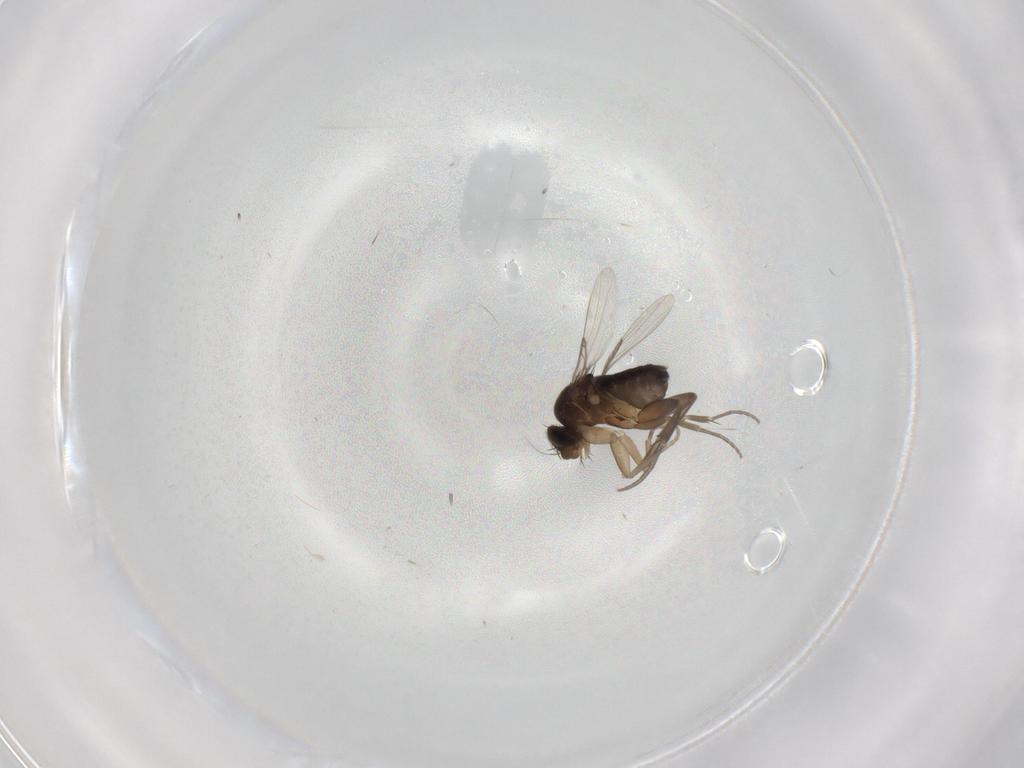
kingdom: Animalia
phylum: Arthropoda
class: Insecta
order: Diptera
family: Phoridae
